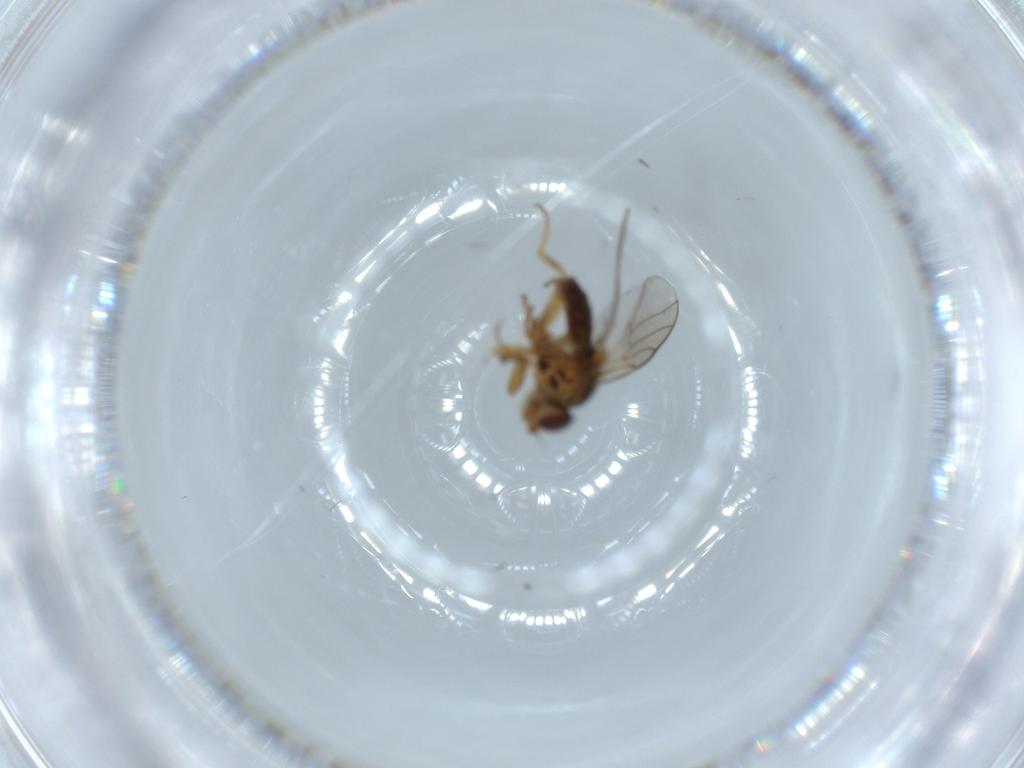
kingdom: Animalia
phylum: Arthropoda
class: Insecta
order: Diptera
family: Chloropidae
